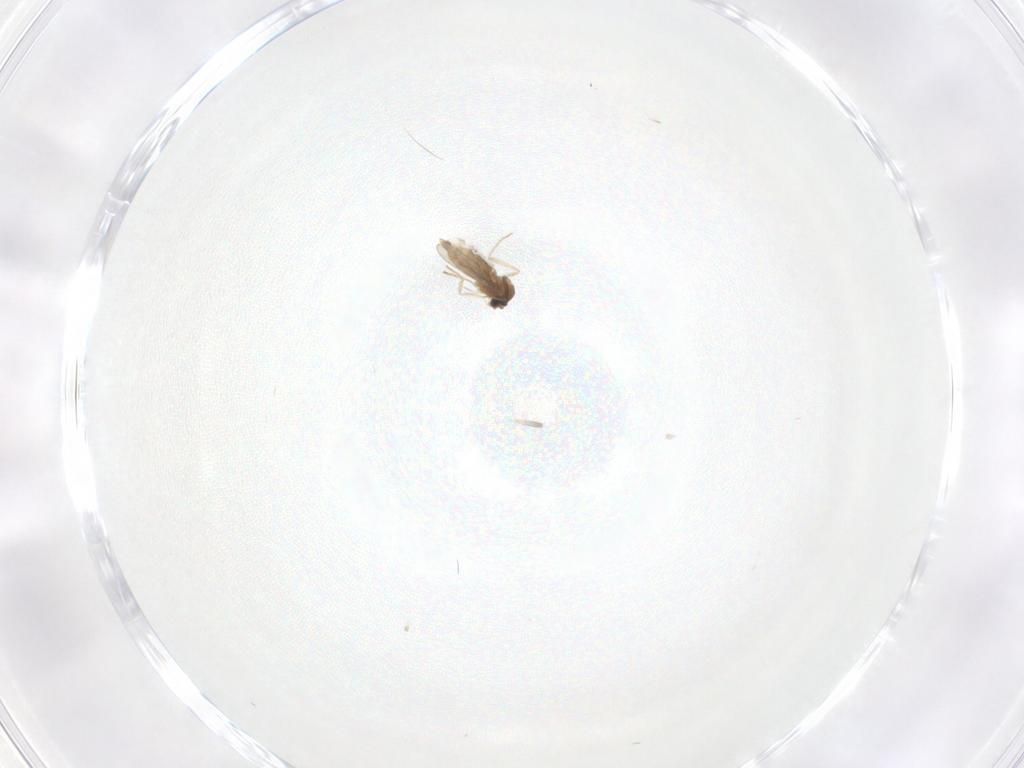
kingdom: Animalia
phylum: Arthropoda
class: Insecta
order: Diptera
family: Cecidomyiidae
